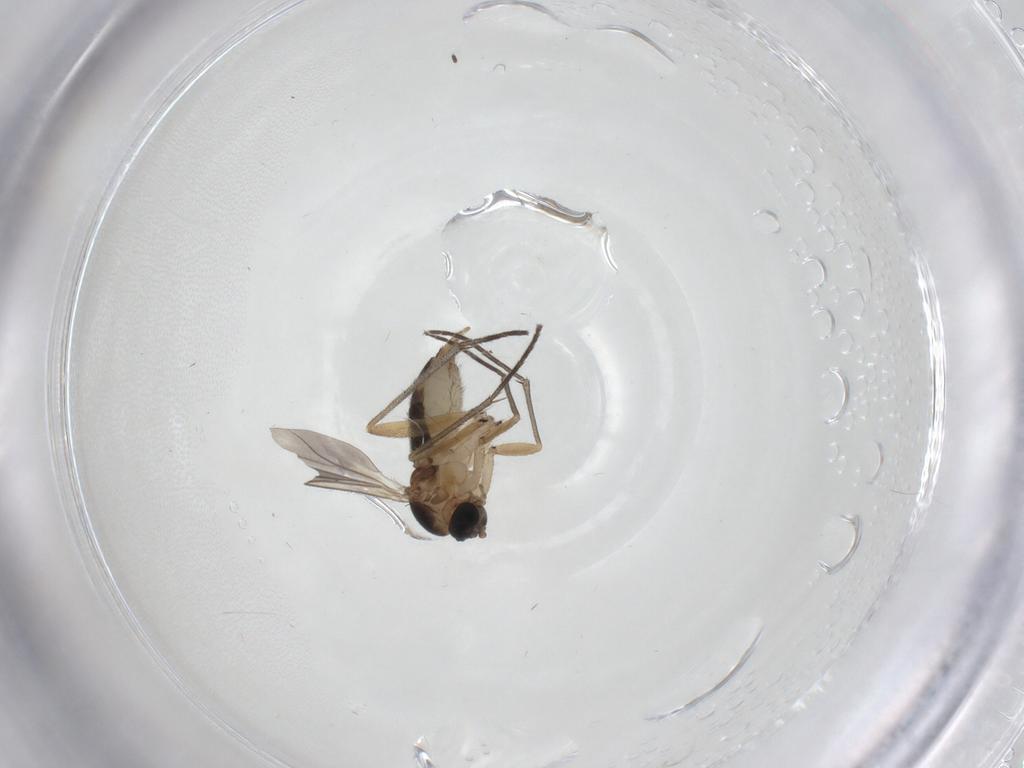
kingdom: Animalia
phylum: Arthropoda
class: Insecta
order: Diptera
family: Sciaridae
